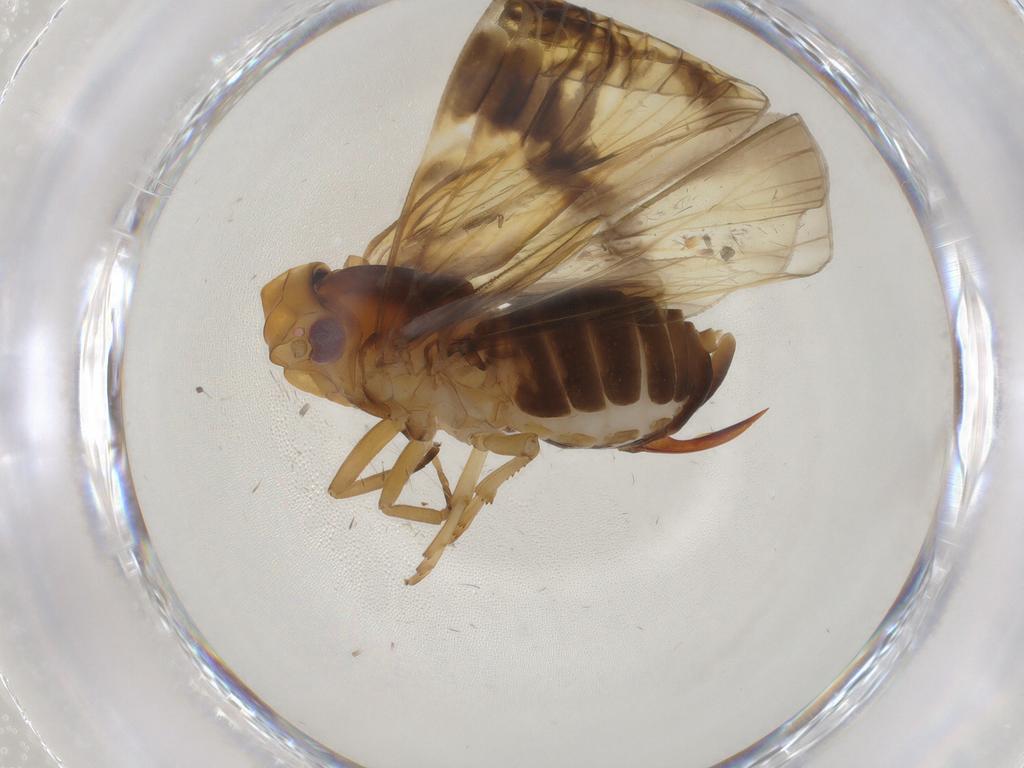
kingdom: Animalia
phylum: Arthropoda
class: Insecta
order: Hemiptera
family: Cixiidae
